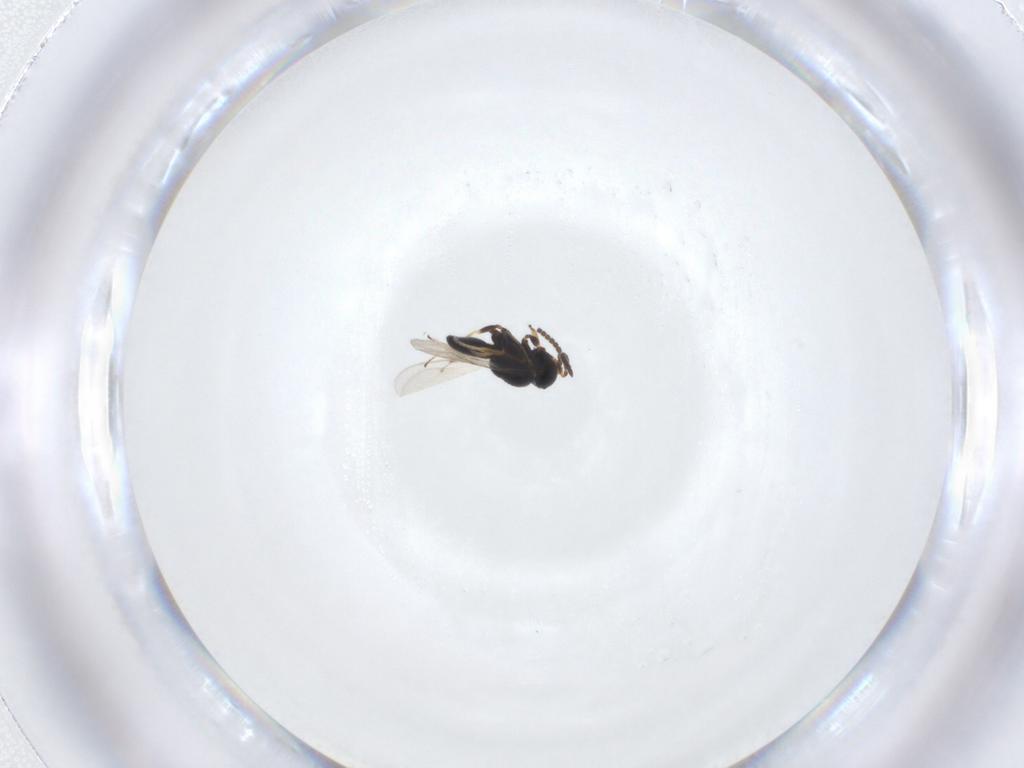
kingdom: Animalia
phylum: Arthropoda
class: Insecta
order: Hymenoptera
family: Scelionidae
